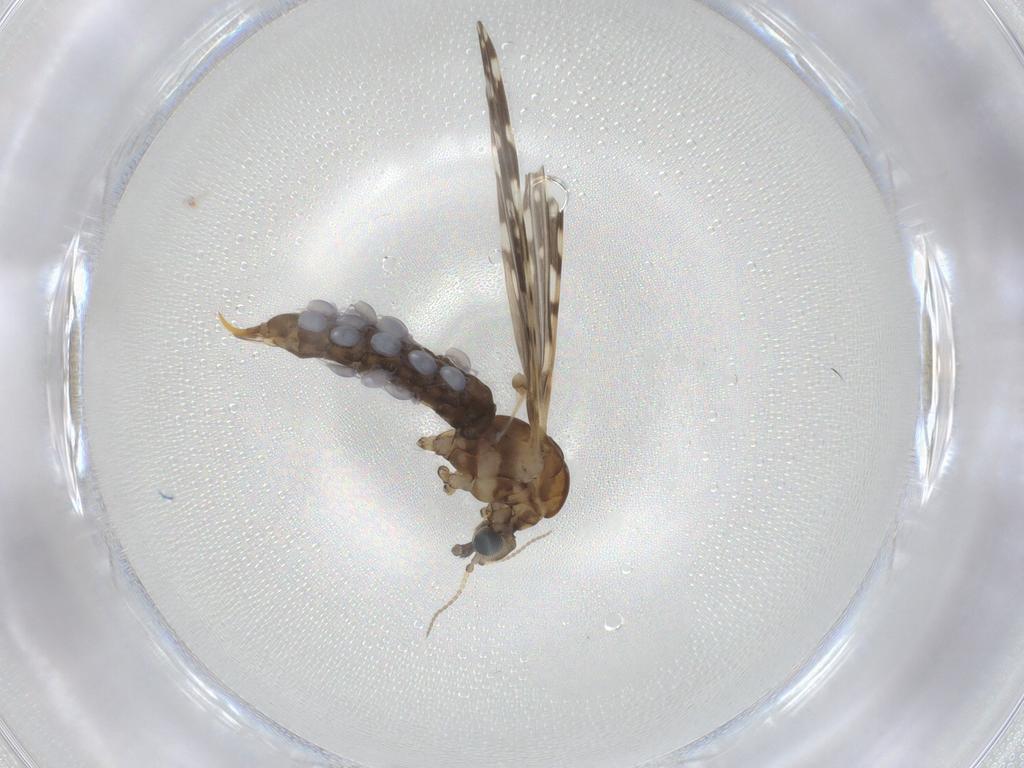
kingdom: Animalia
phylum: Arthropoda
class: Insecta
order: Diptera
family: Limoniidae
